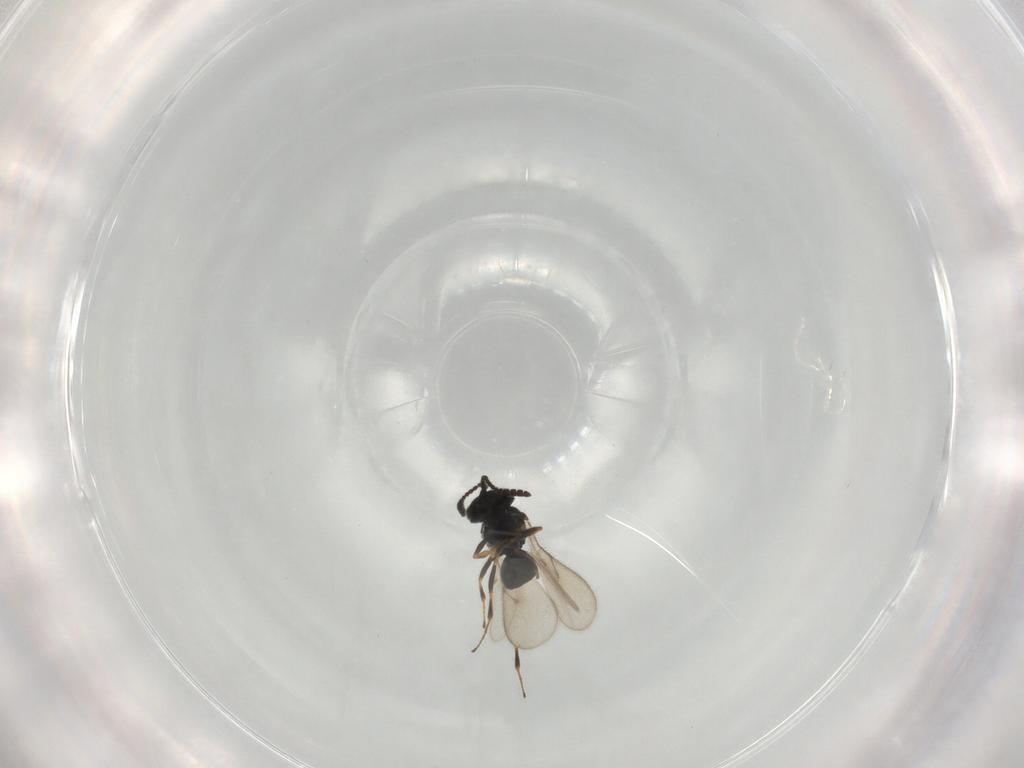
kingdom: Animalia
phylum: Arthropoda
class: Insecta
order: Hymenoptera
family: Scelionidae
